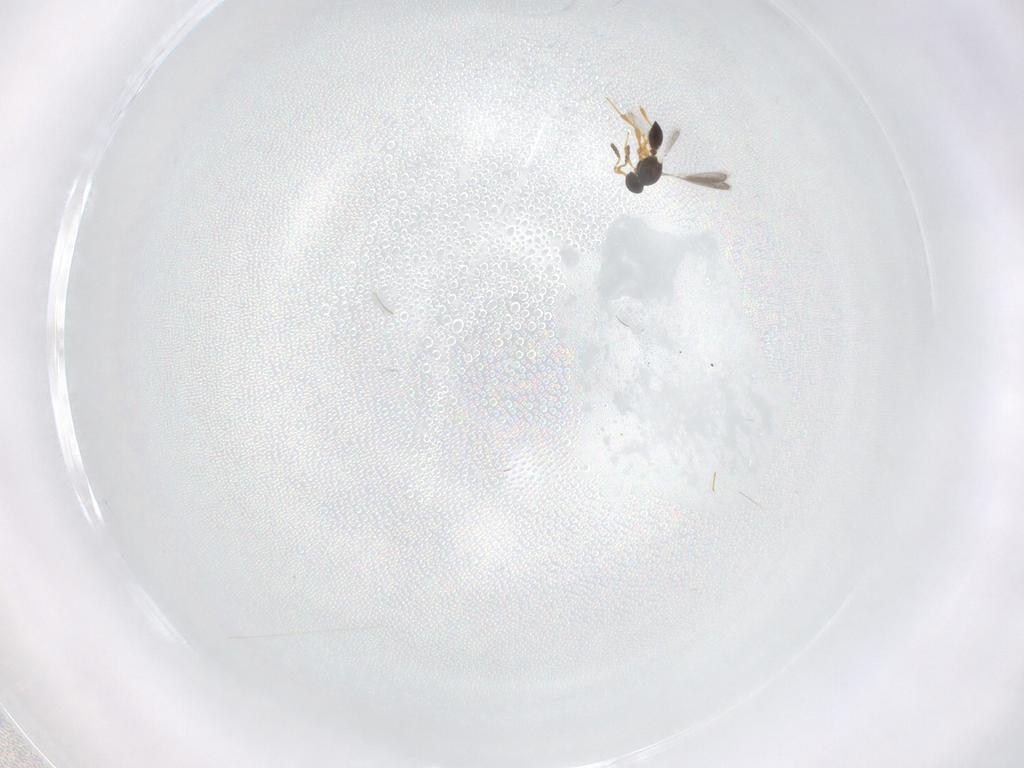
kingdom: Animalia
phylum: Arthropoda
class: Insecta
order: Hymenoptera
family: Platygastridae
